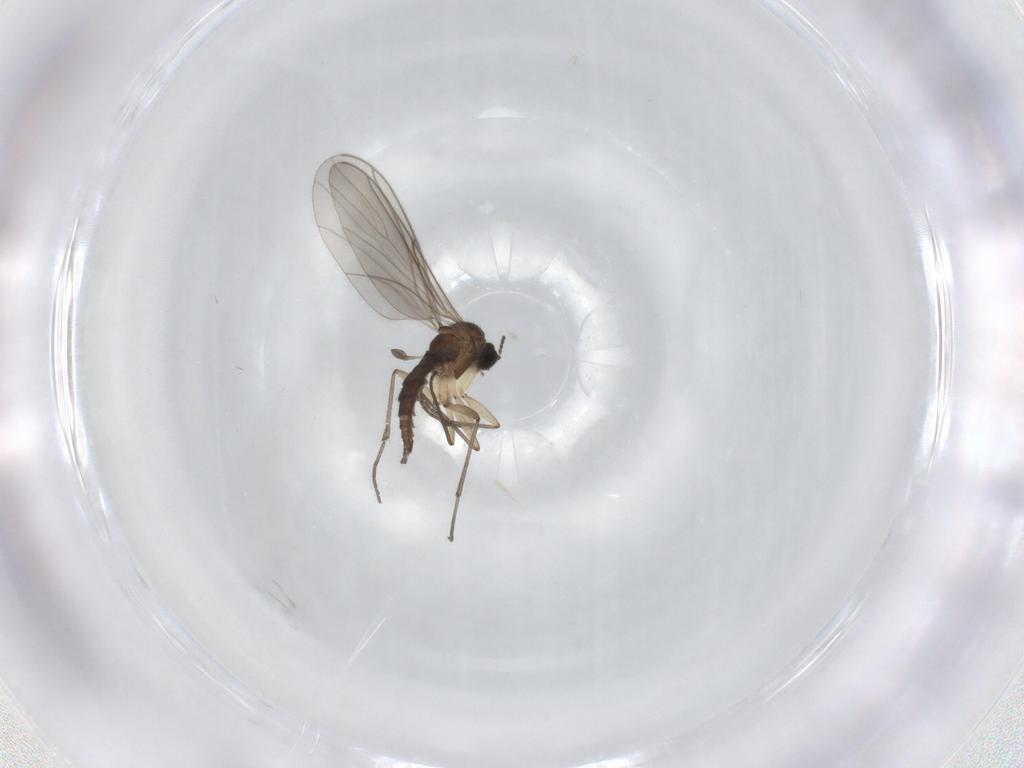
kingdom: Animalia
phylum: Arthropoda
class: Insecta
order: Diptera
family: Sciaridae
